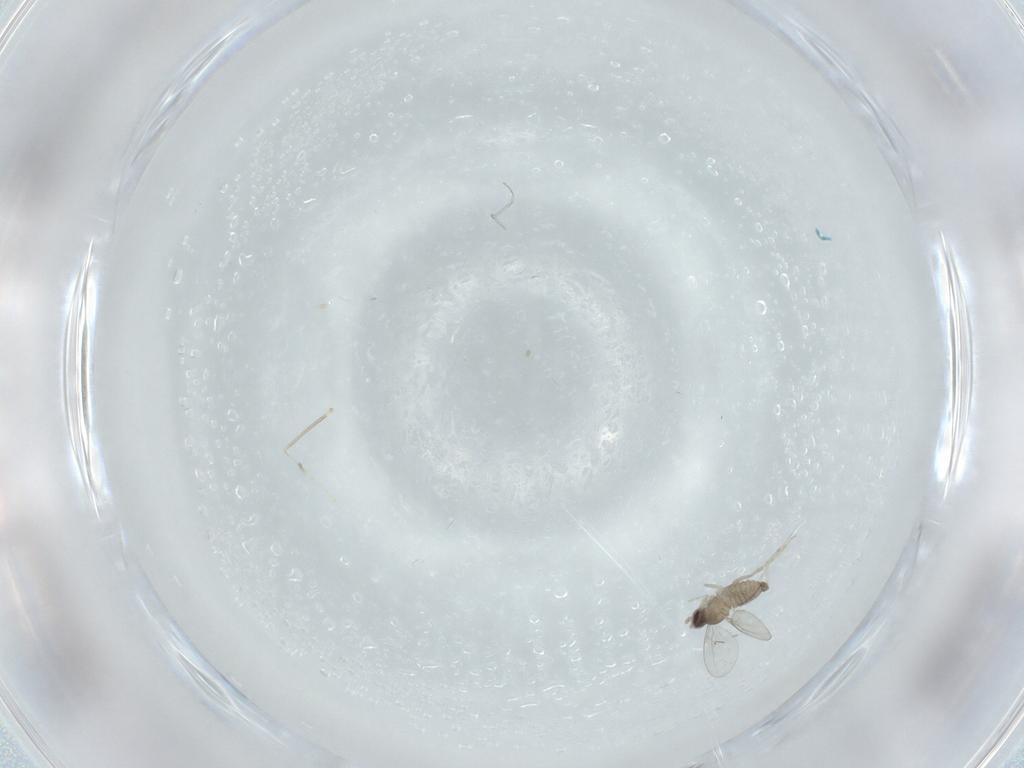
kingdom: Animalia
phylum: Arthropoda
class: Insecta
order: Diptera
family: Cecidomyiidae
